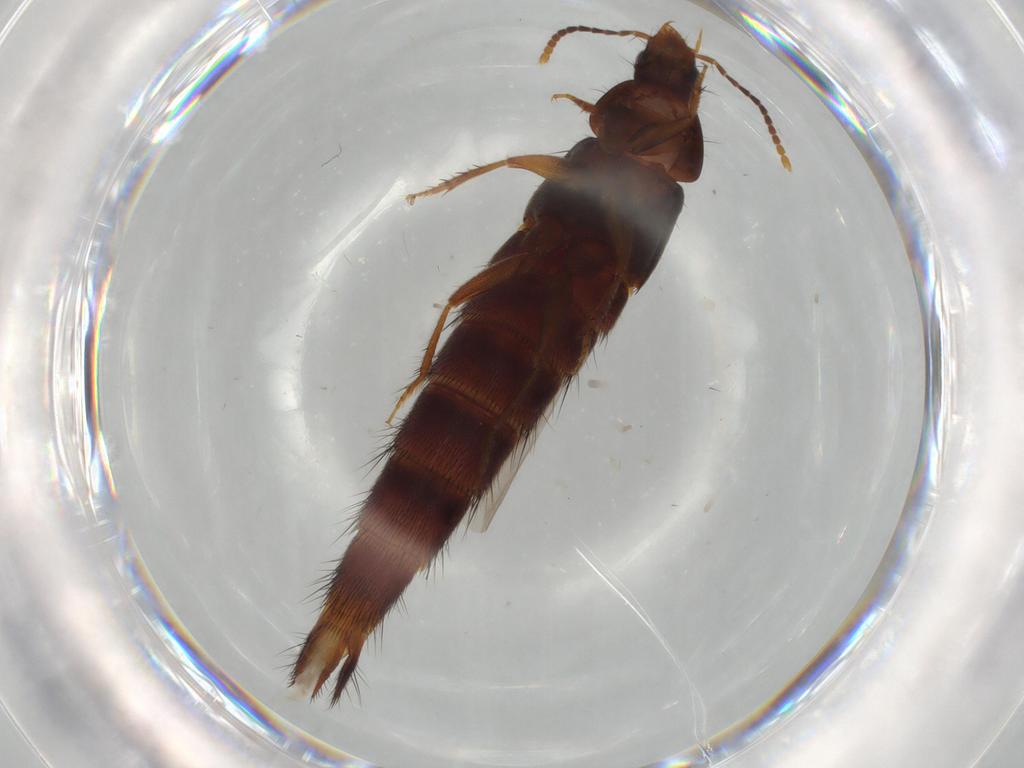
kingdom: Animalia
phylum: Arthropoda
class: Insecta
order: Coleoptera
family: Staphylinidae
